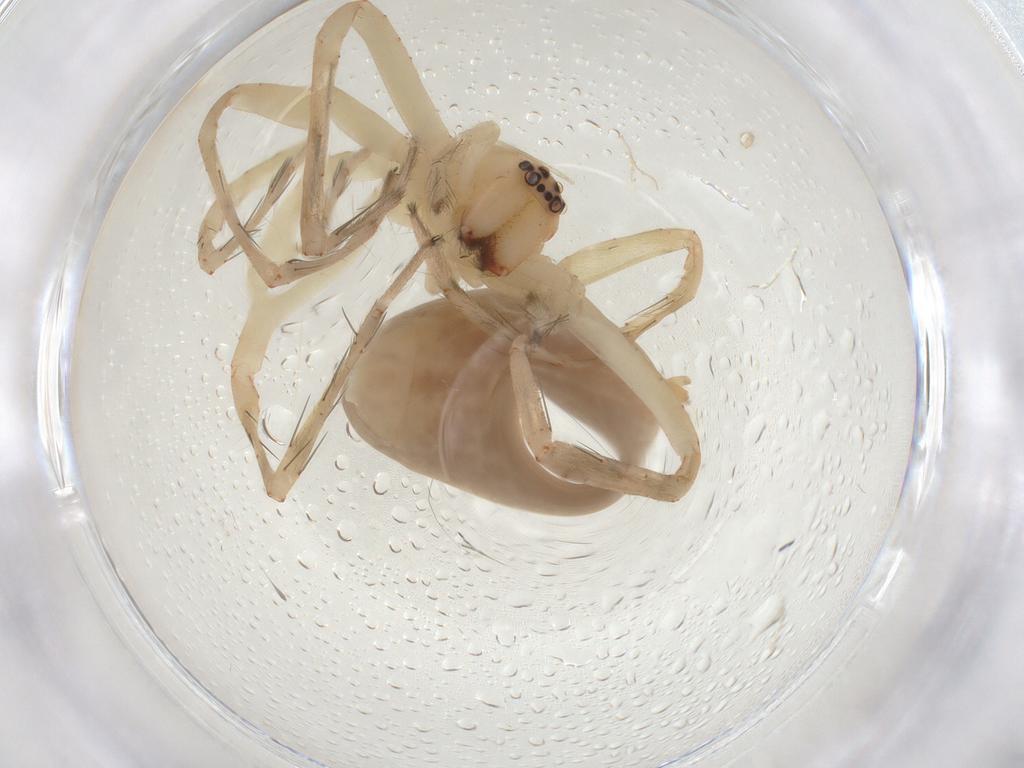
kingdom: Animalia
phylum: Arthropoda
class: Arachnida
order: Araneae
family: Anyphaenidae
